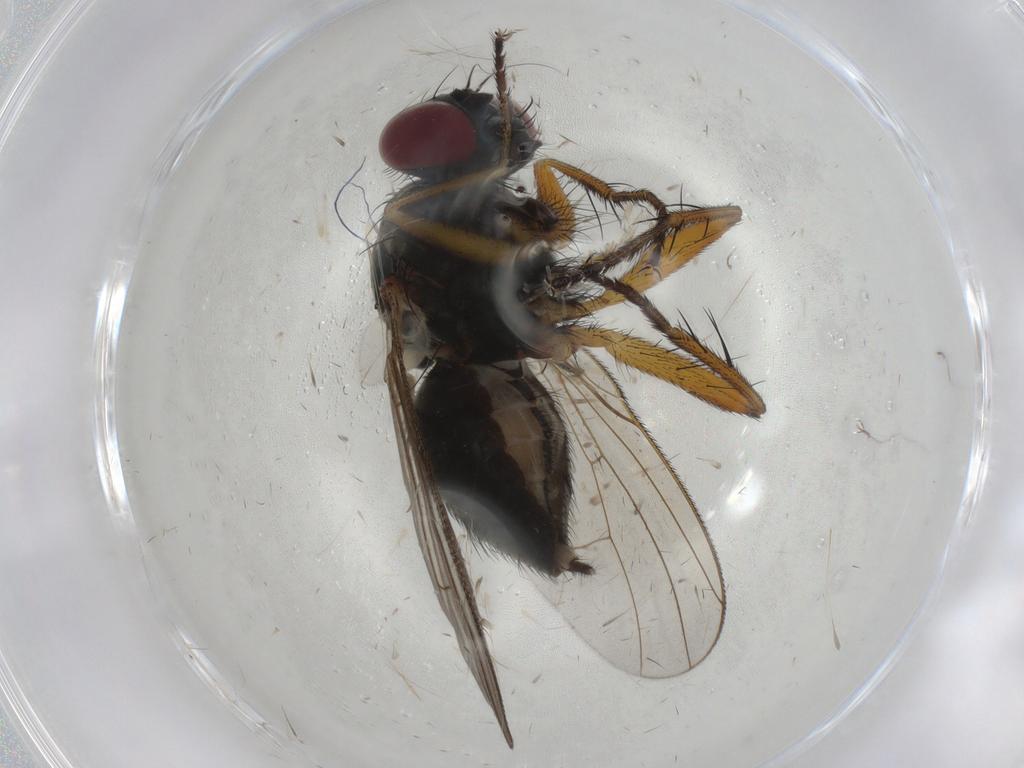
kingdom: Animalia
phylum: Arthropoda
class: Insecta
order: Diptera
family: Muscidae
